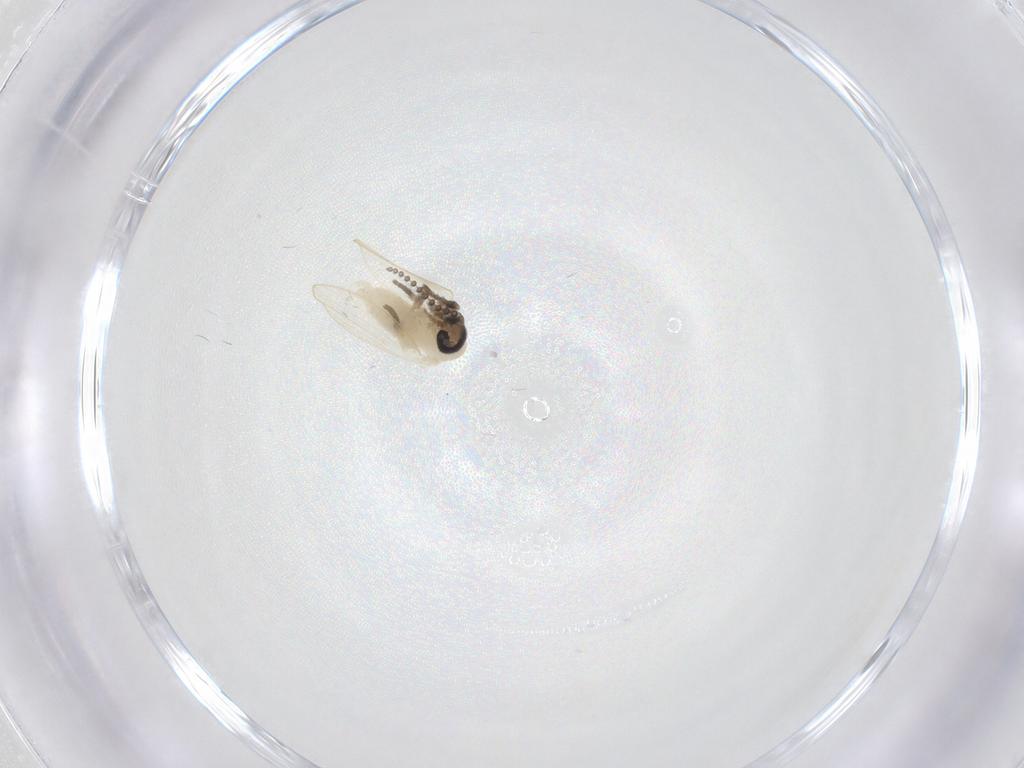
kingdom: Animalia
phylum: Arthropoda
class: Insecta
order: Diptera
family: Psychodidae
